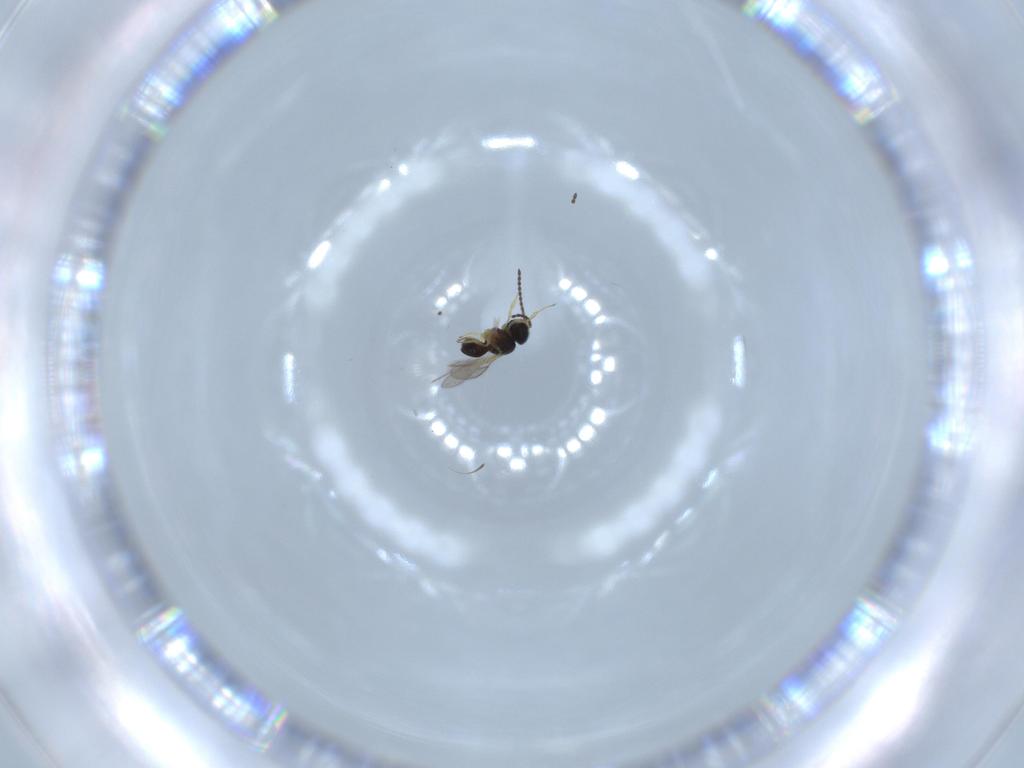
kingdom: Animalia
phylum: Arthropoda
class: Insecta
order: Hymenoptera
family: Scelionidae
